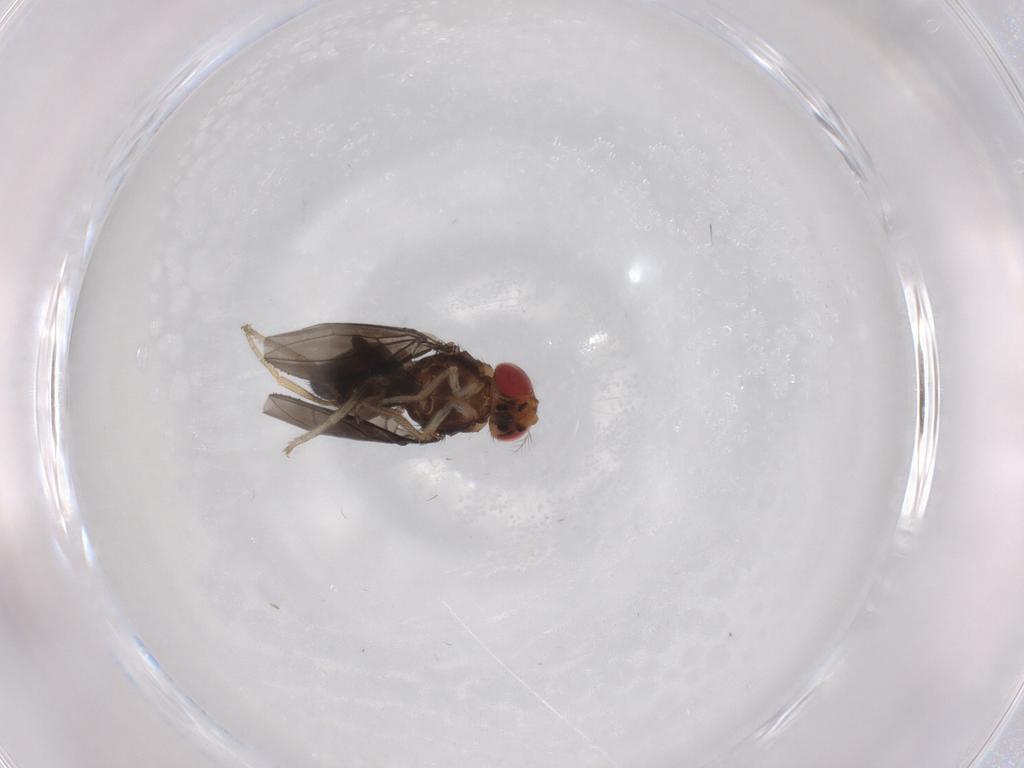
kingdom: Animalia
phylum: Arthropoda
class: Insecta
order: Diptera
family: Drosophilidae
